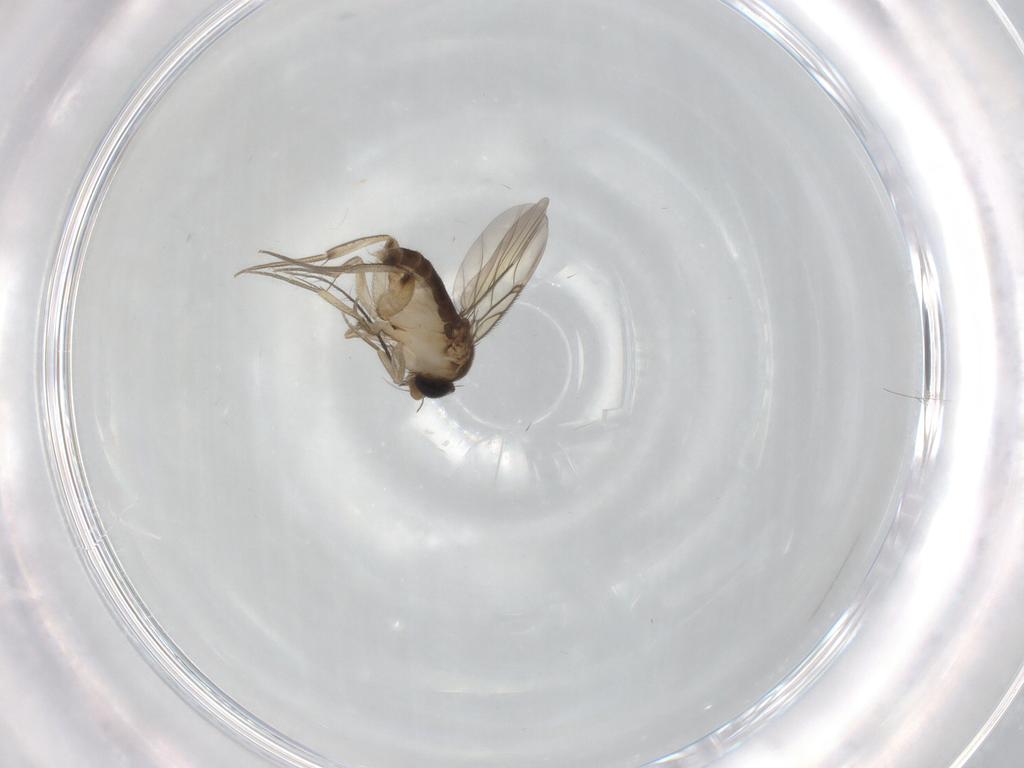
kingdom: Animalia
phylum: Arthropoda
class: Insecta
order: Diptera
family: Phoridae
